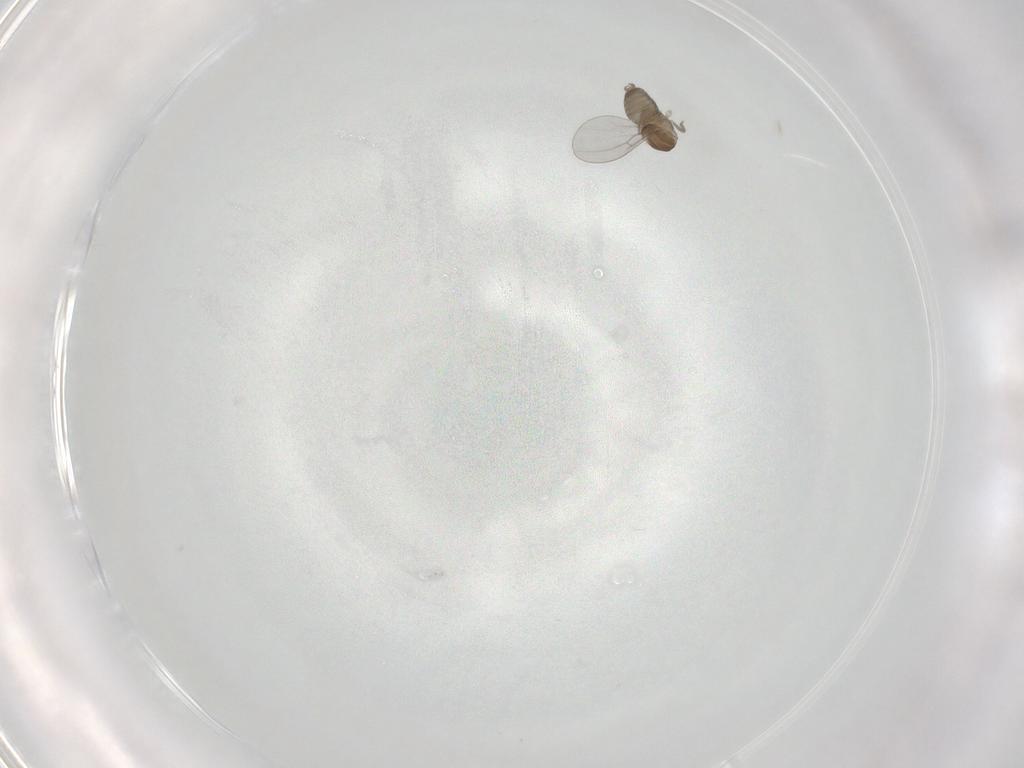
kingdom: Animalia
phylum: Arthropoda
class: Insecta
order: Diptera
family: Cecidomyiidae
